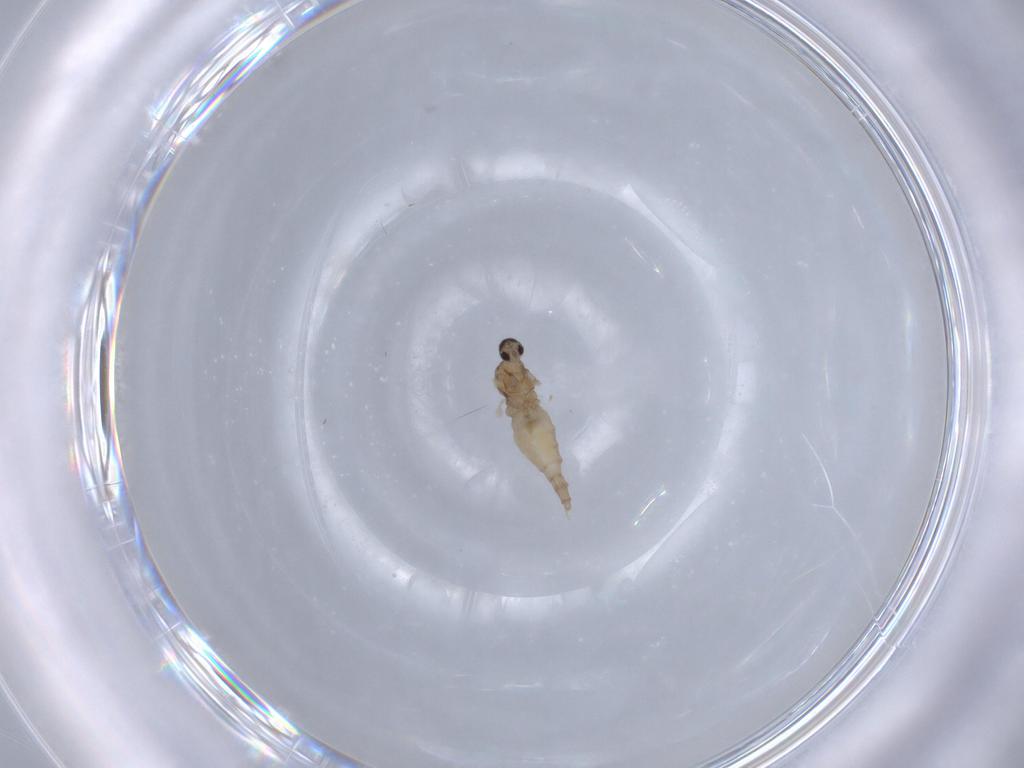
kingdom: Animalia
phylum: Arthropoda
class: Insecta
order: Diptera
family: Cecidomyiidae
